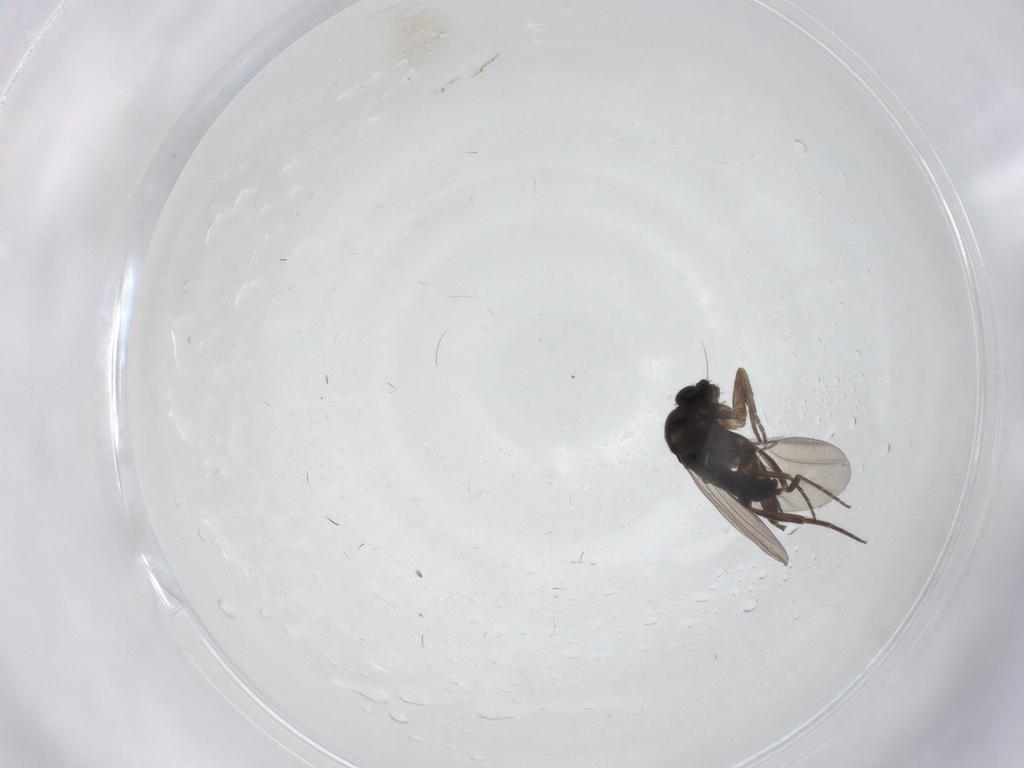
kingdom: Animalia
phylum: Arthropoda
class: Insecta
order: Diptera
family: Phoridae
